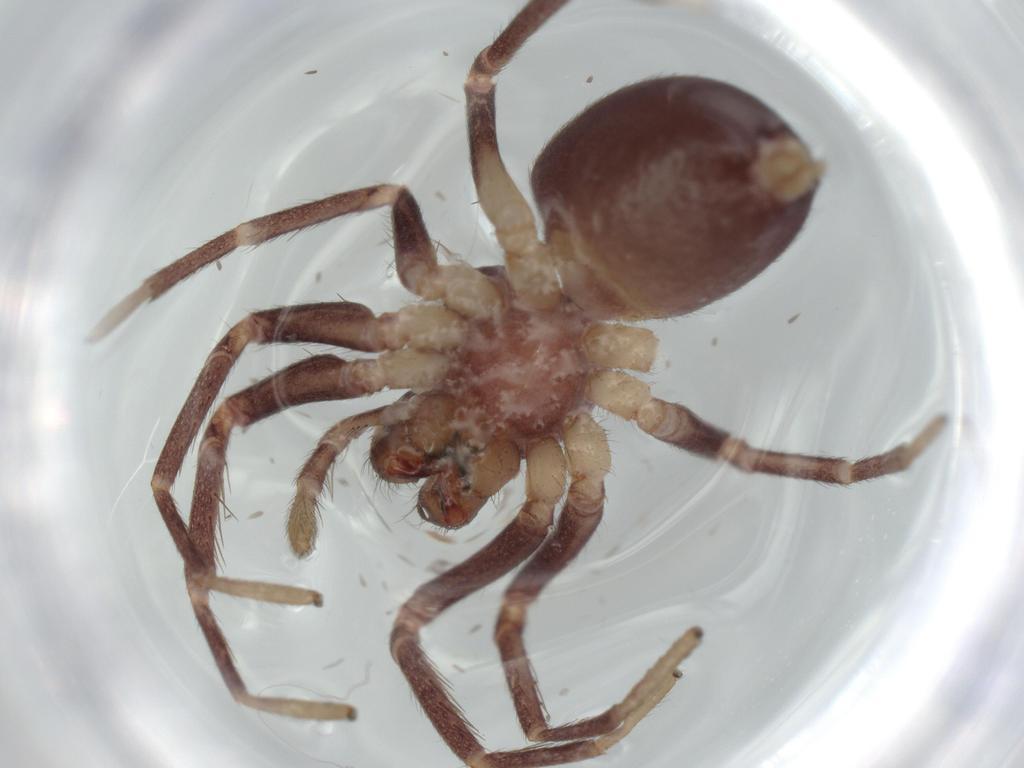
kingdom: Animalia
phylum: Arthropoda
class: Arachnida
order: Araneae
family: Corinnidae
